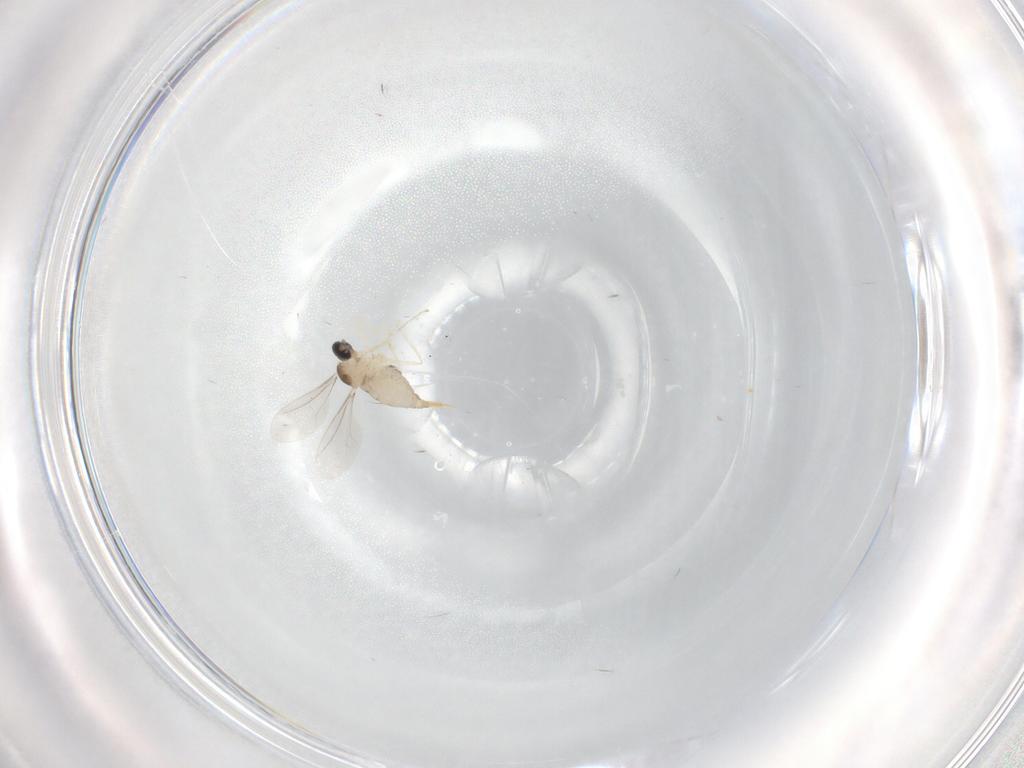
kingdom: Animalia
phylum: Arthropoda
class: Insecta
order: Diptera
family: Cecidomyiidae
